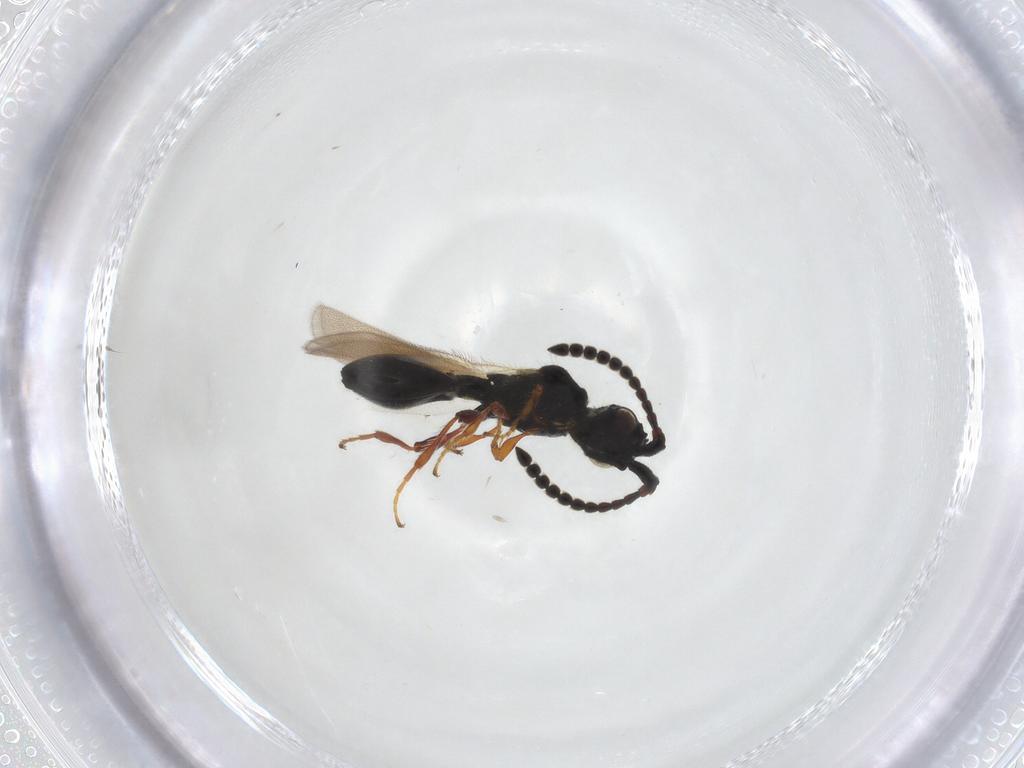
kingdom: Animalia
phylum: Arthropoda
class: Insecta
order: Hymenoptera
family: Diapriidae
